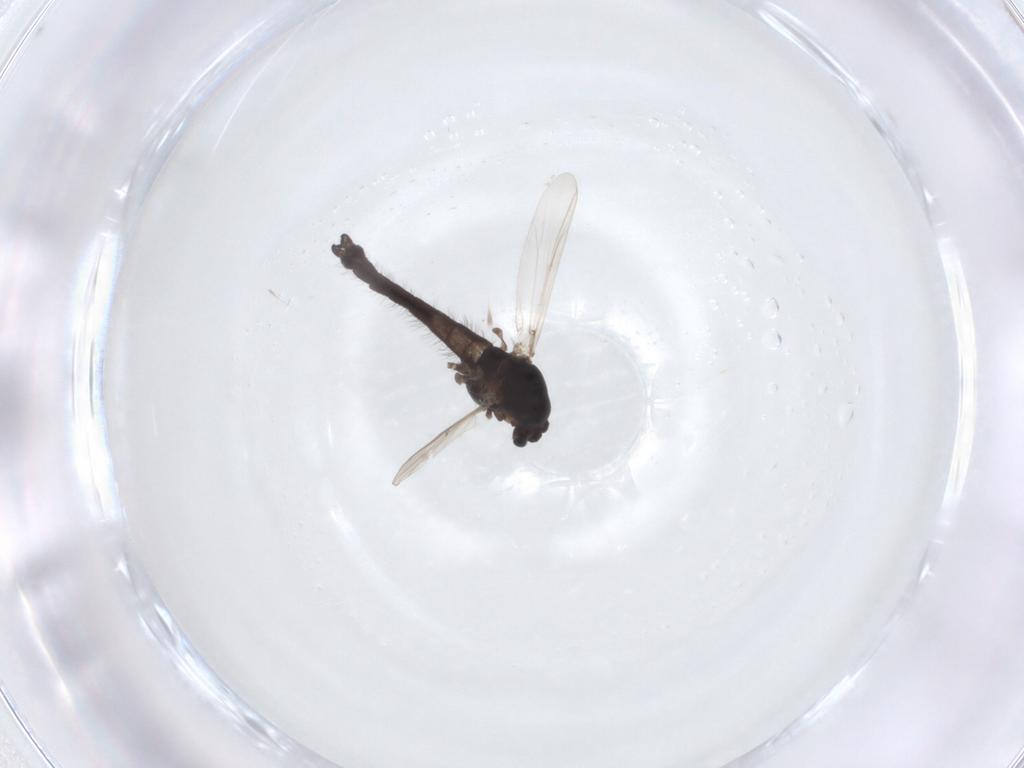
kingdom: Animalia
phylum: Arthropoda
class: Insecta
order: Diptera
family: Chironomidae
